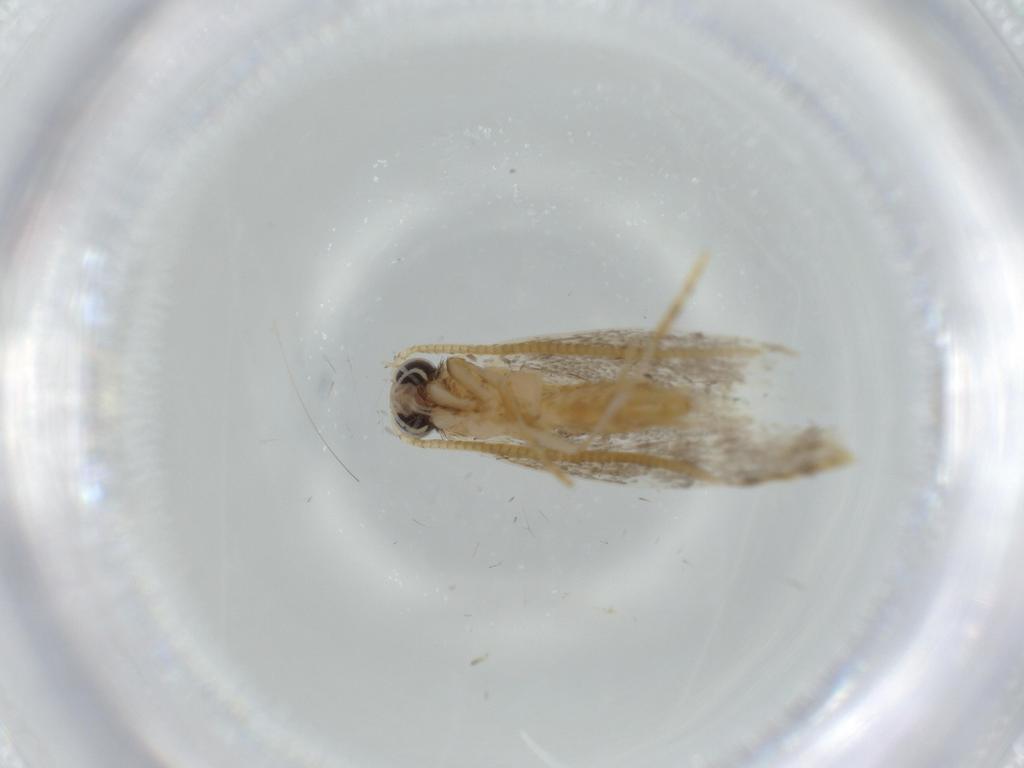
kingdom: Animalia
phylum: Arthropoda
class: Insecta
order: Lepidoptera
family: Tineidae
